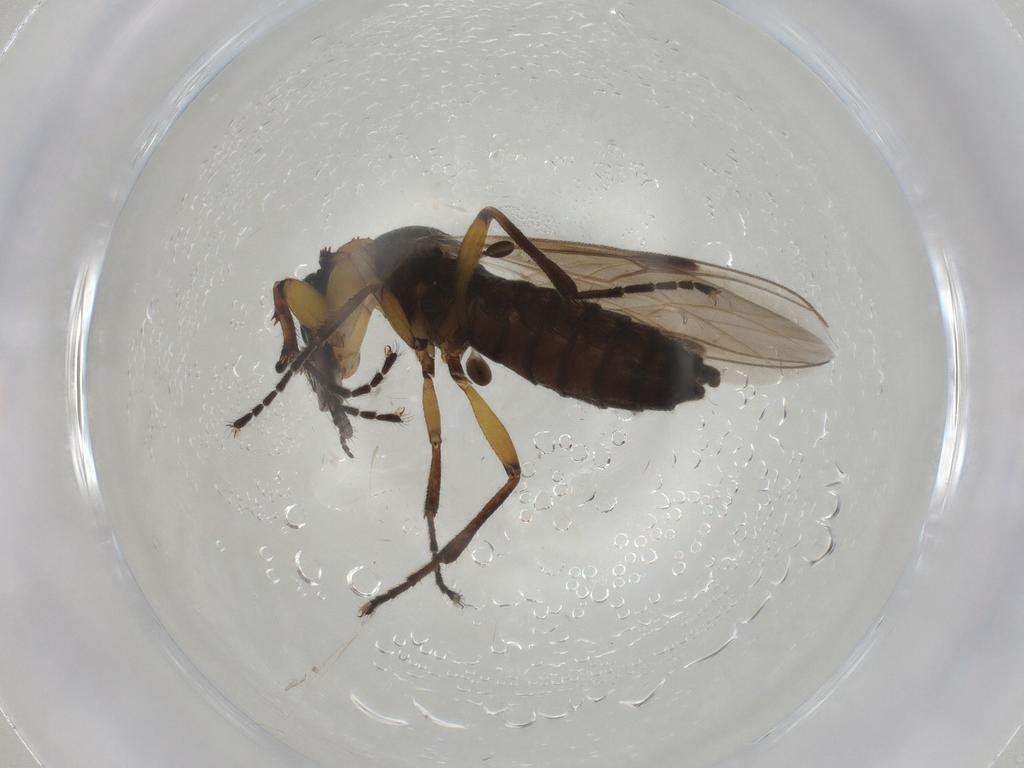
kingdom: Animalia
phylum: Arthropoda
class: Insecta
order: Diptera
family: Bibionidae
